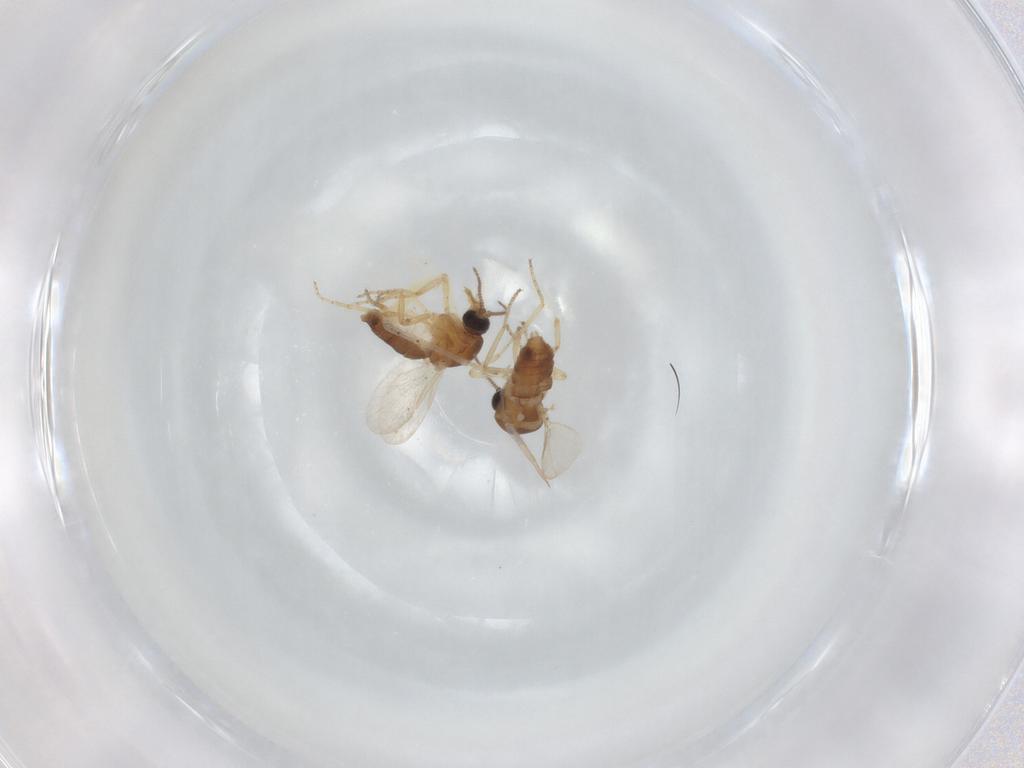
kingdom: Animalia
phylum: Arthropoda
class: Insecta
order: Diptera
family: Ceratopogonidae
